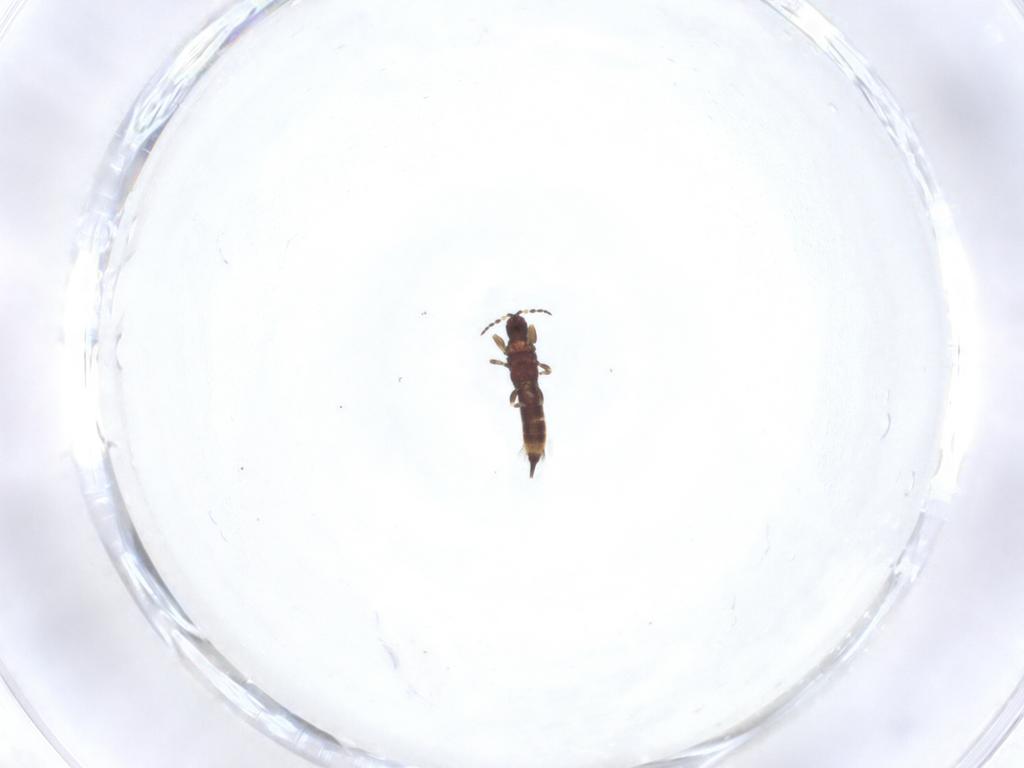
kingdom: Animalia
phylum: Arthropoda
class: Insecta
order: Thysanoptera
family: Phlaeothripidae
